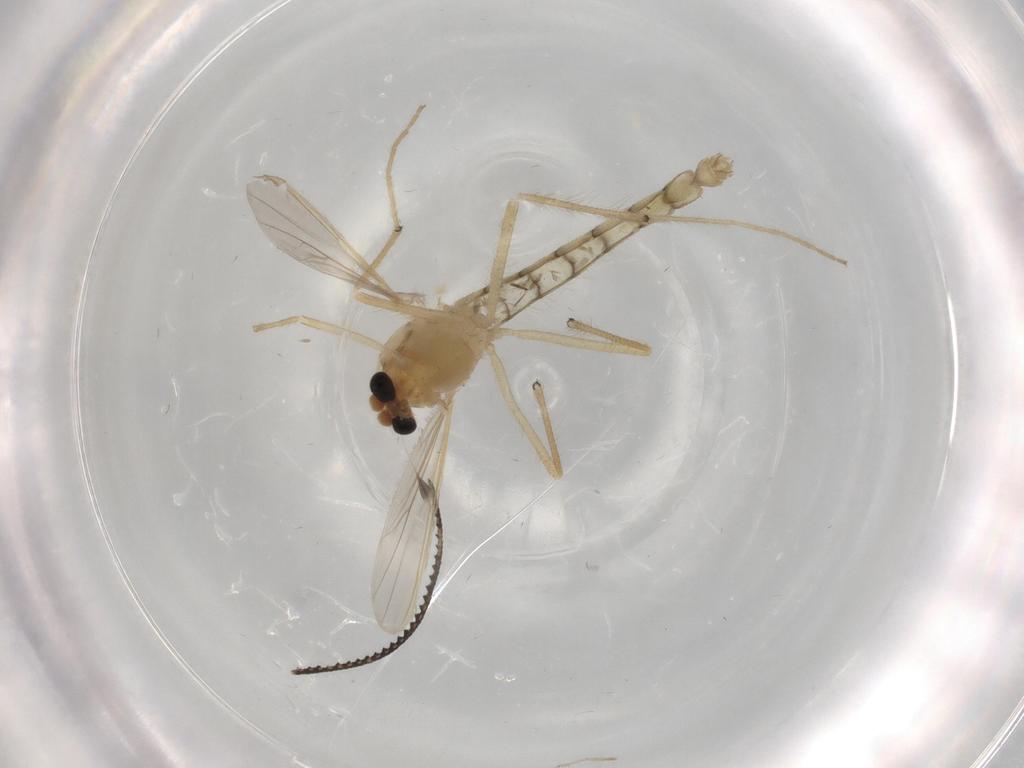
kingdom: Animalia
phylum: Arthropoda
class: Insecta
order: Diptera
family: Chironomidae
